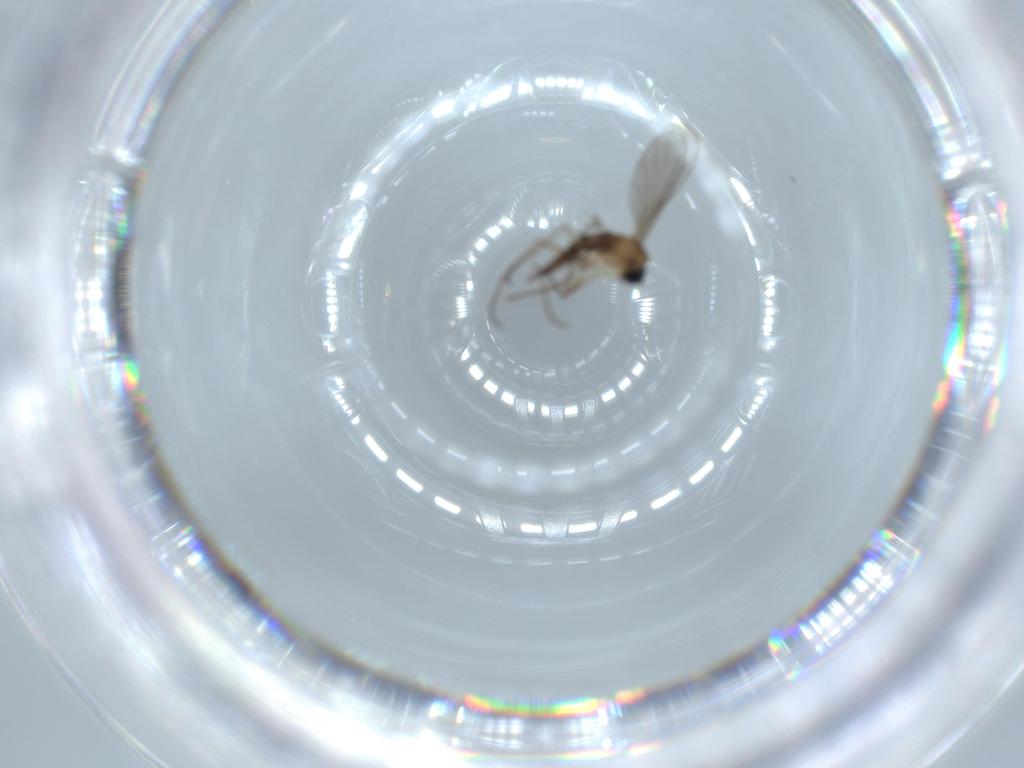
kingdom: Animalia
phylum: Arthropoda
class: Insecta
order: Diptera
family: Sciaridae
